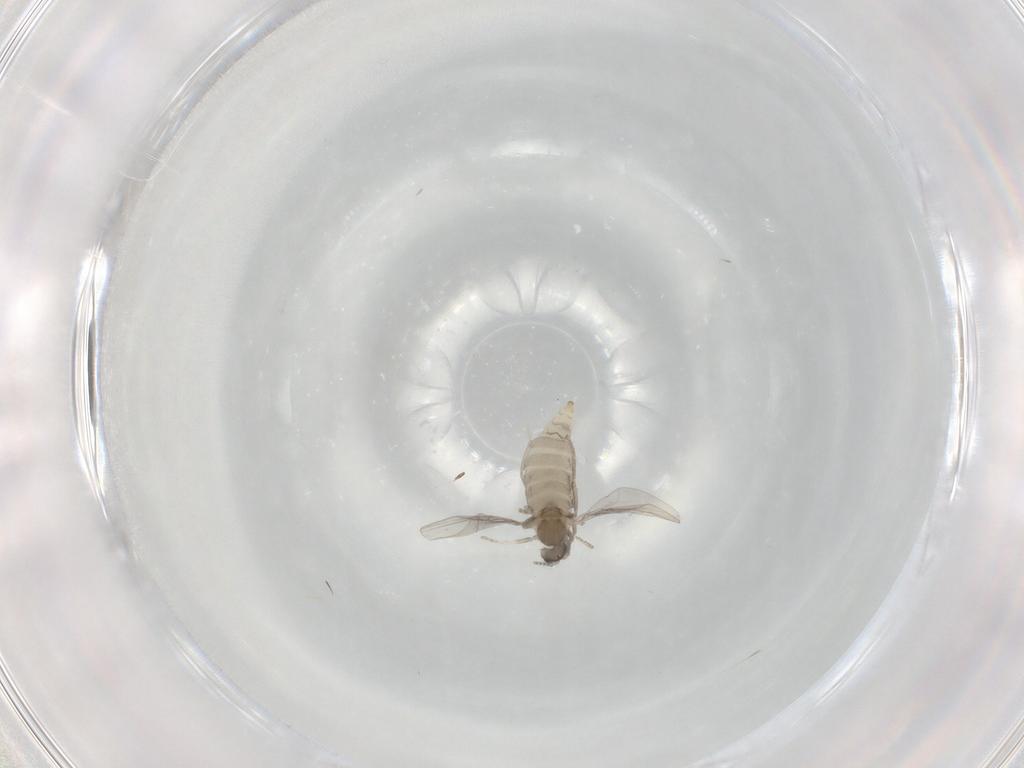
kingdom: Animalia
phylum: Arthropoda
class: Insecta
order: Diptera
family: Cecidomyiidae
